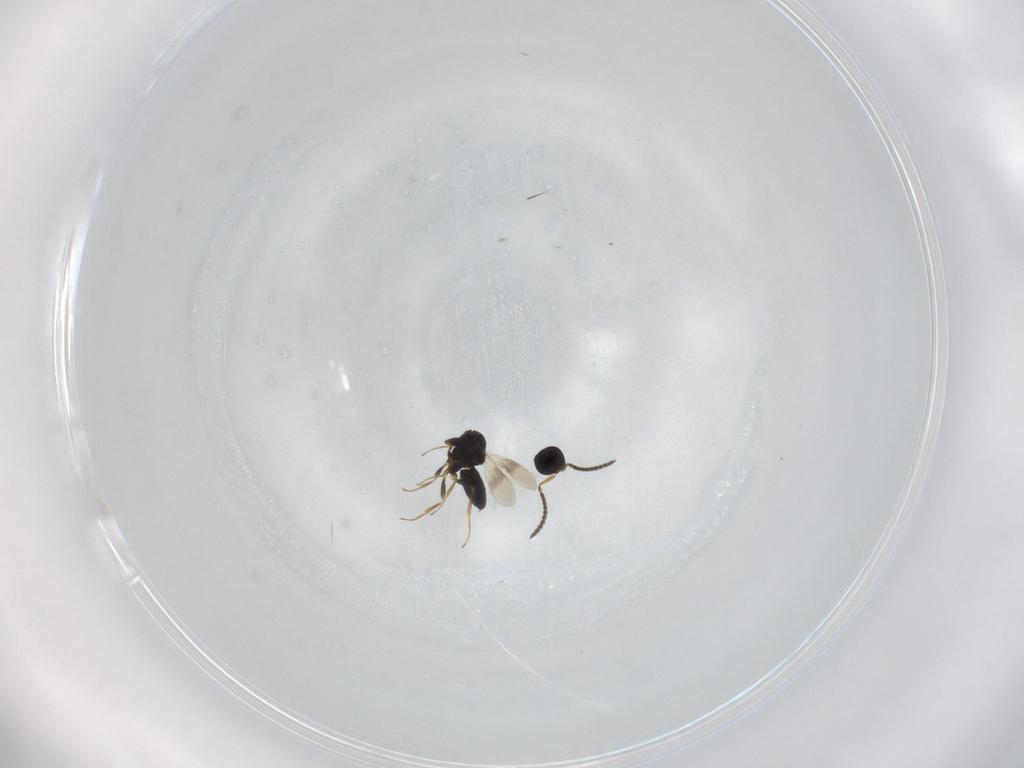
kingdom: Animalia
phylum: Arthropoda
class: Insecta
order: Hymenoptera
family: Scelionidae
